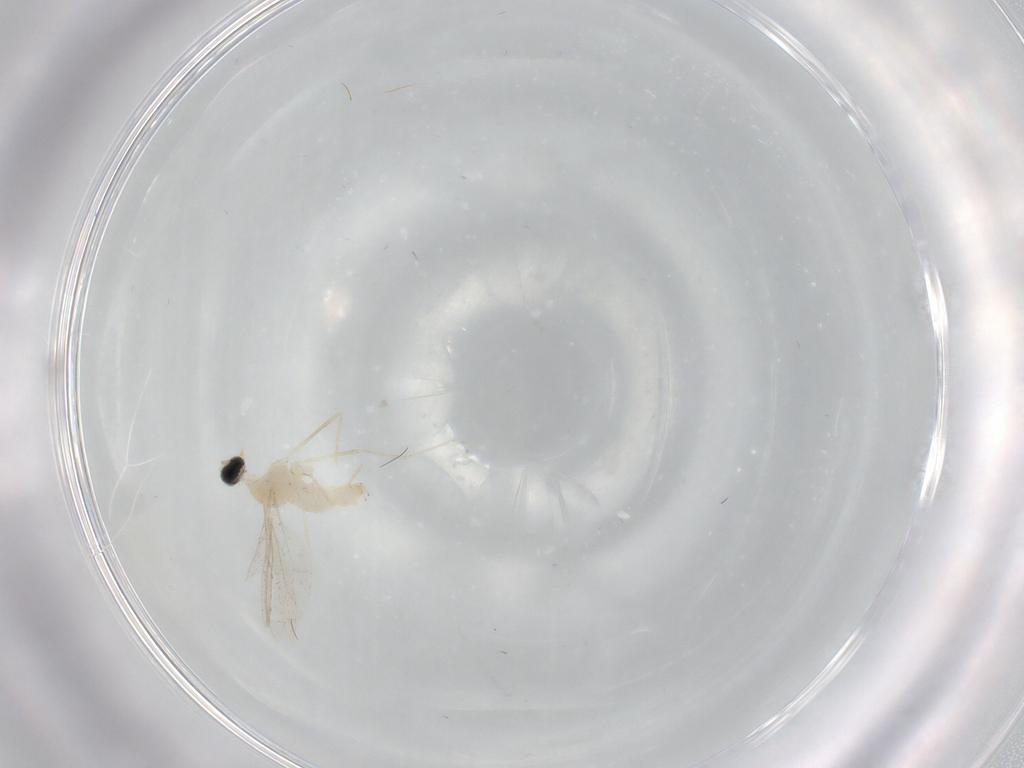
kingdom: Animalia
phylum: Arthropoda
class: Insecta
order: Diptera
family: Cecidomyiidae
